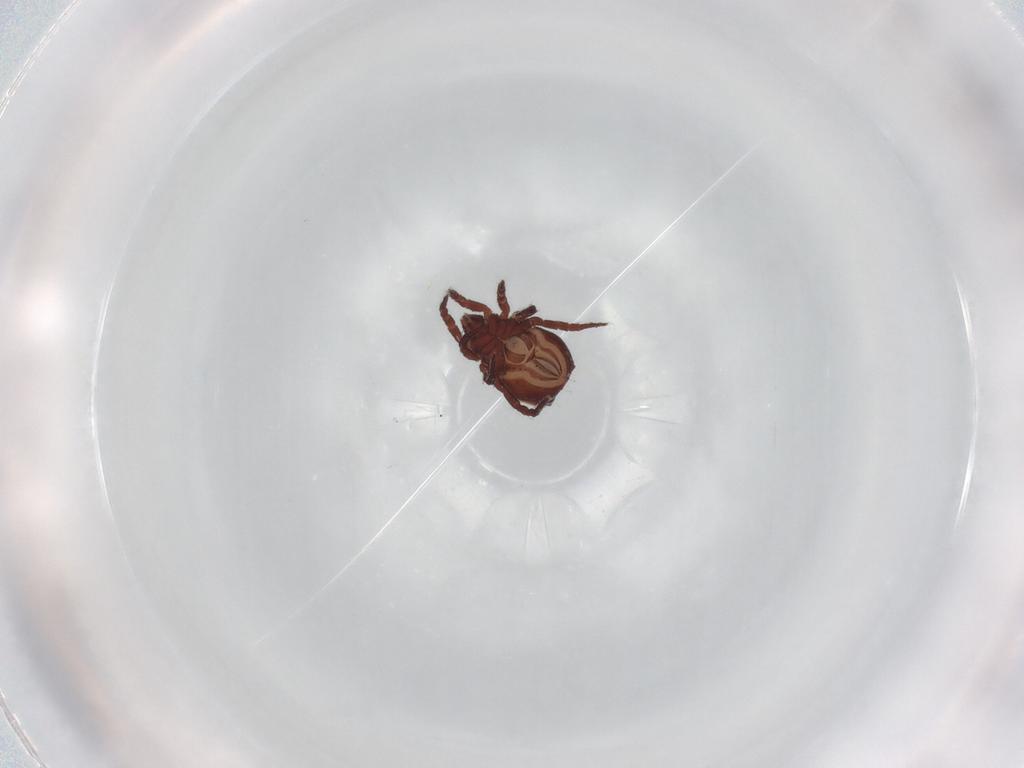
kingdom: Animalia
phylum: Arthropoda
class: Arachnida
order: Sarcoptiformes
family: Nothridae
